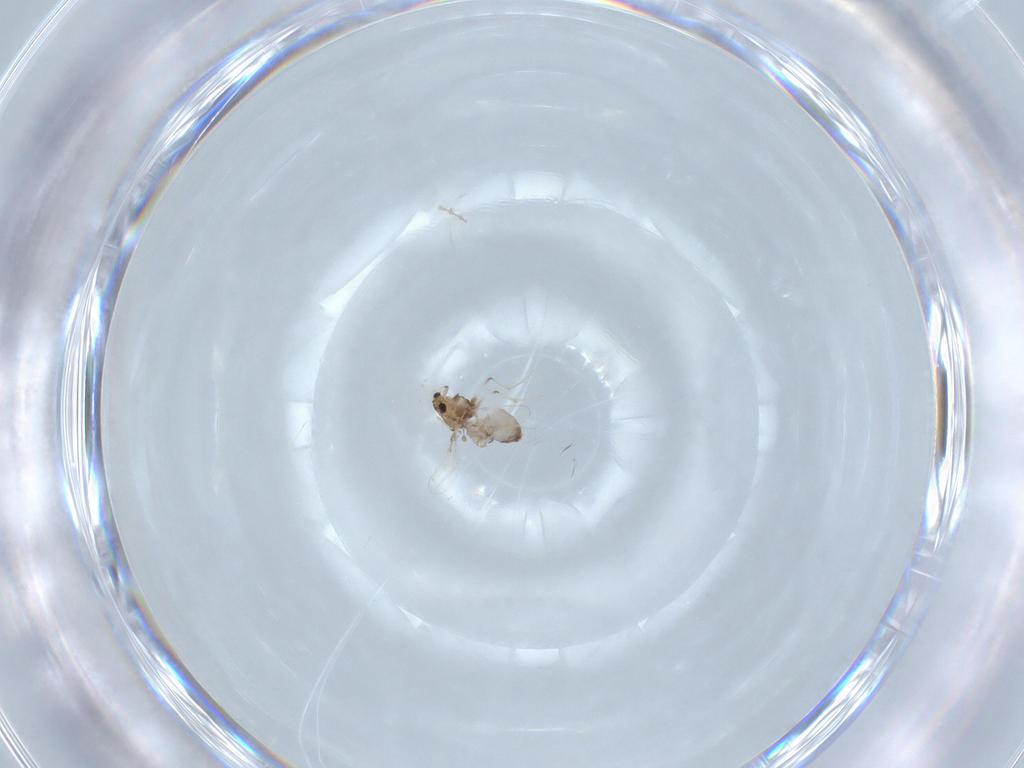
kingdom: Animalia
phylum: Arthropoda
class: Insecta
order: Diptera
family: Chironomidae
